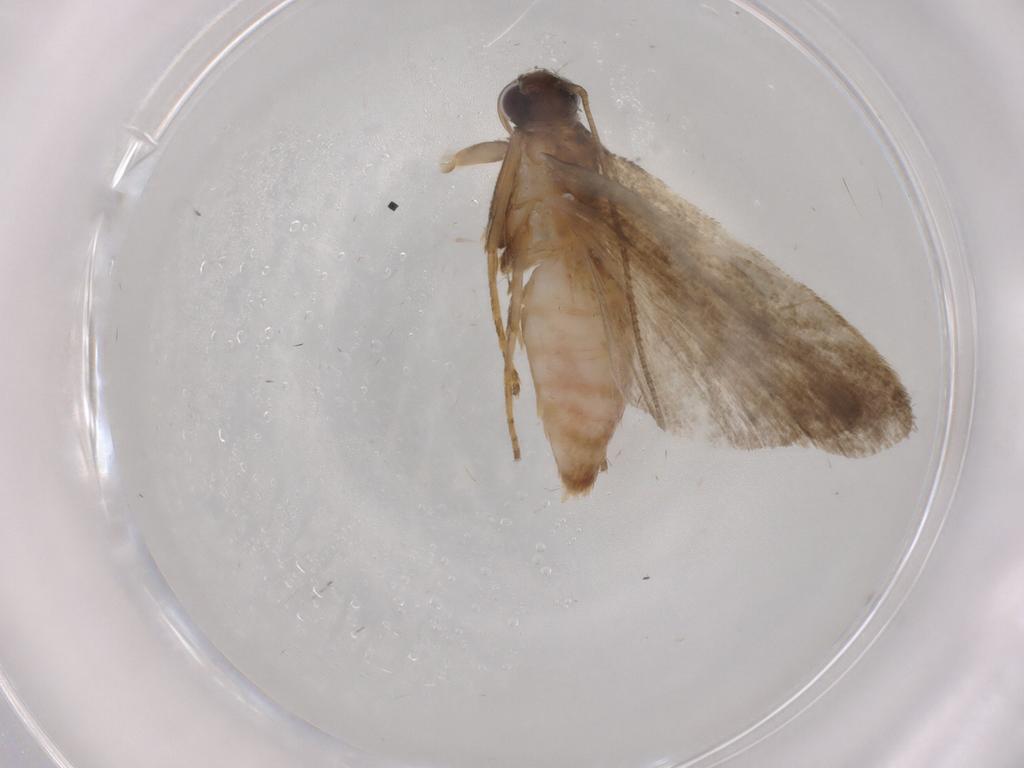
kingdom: Animalia
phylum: Arthropoda
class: Insecta
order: Lepidoptera
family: Noctuidae
